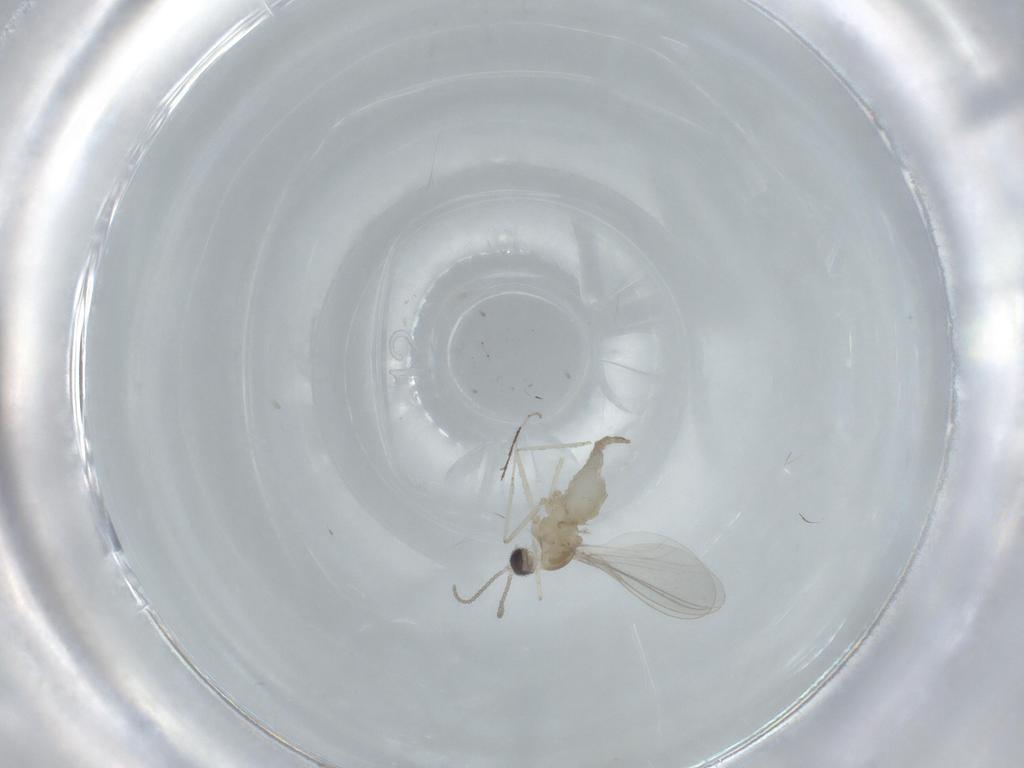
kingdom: Animalia
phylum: Arthropoda
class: Insecta
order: Diptera
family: Cecidomyiidae
